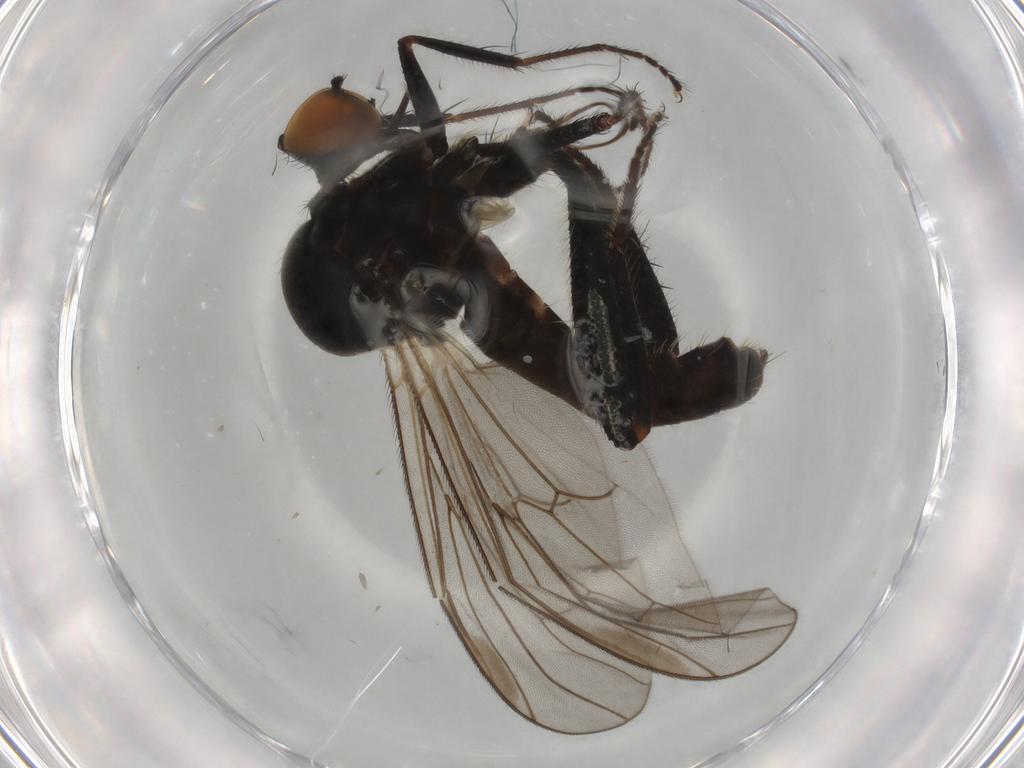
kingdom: Animalia
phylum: Arthropoda
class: Insecta
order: Diptera
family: Hybotidae
